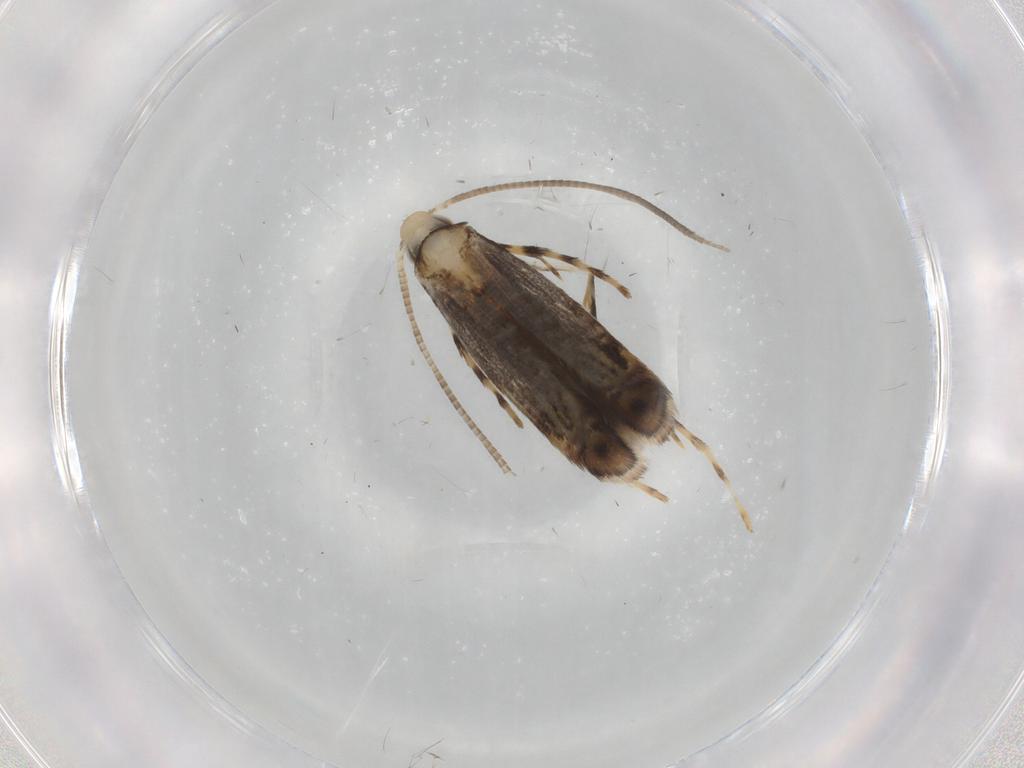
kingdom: Animalia
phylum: Arthropoda
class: Insecta
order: Lepidoptera
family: Gracillariidae
